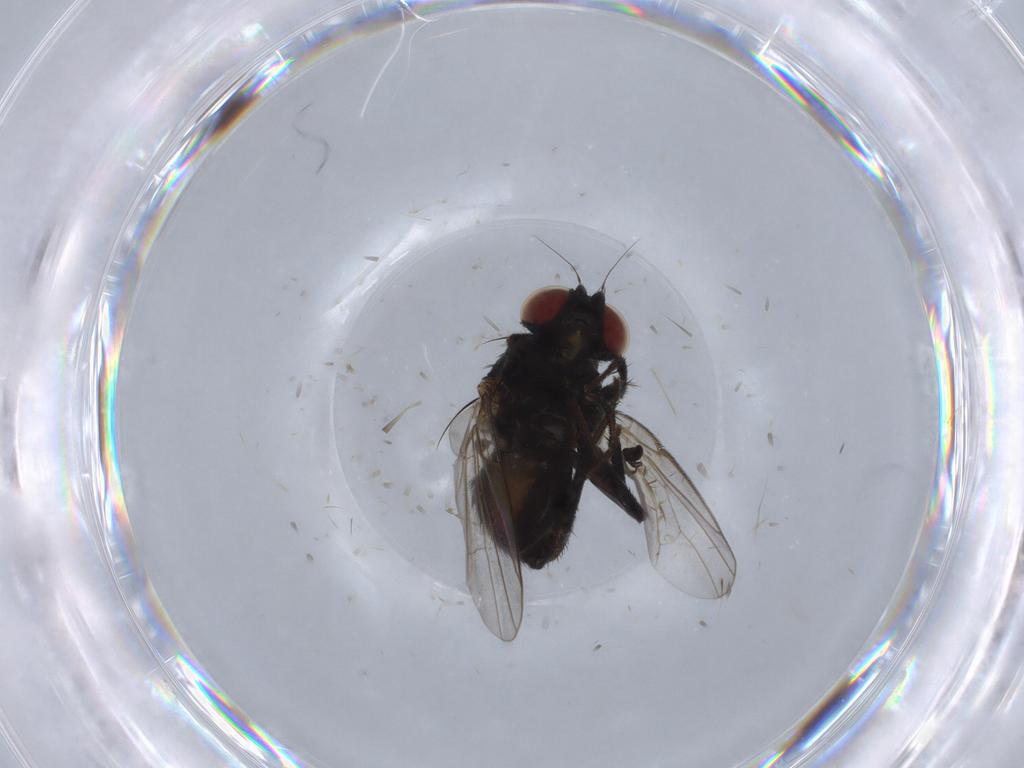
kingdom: Animalia
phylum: Arthropoda
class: Insecta
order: Diptera
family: Agromyzidae
